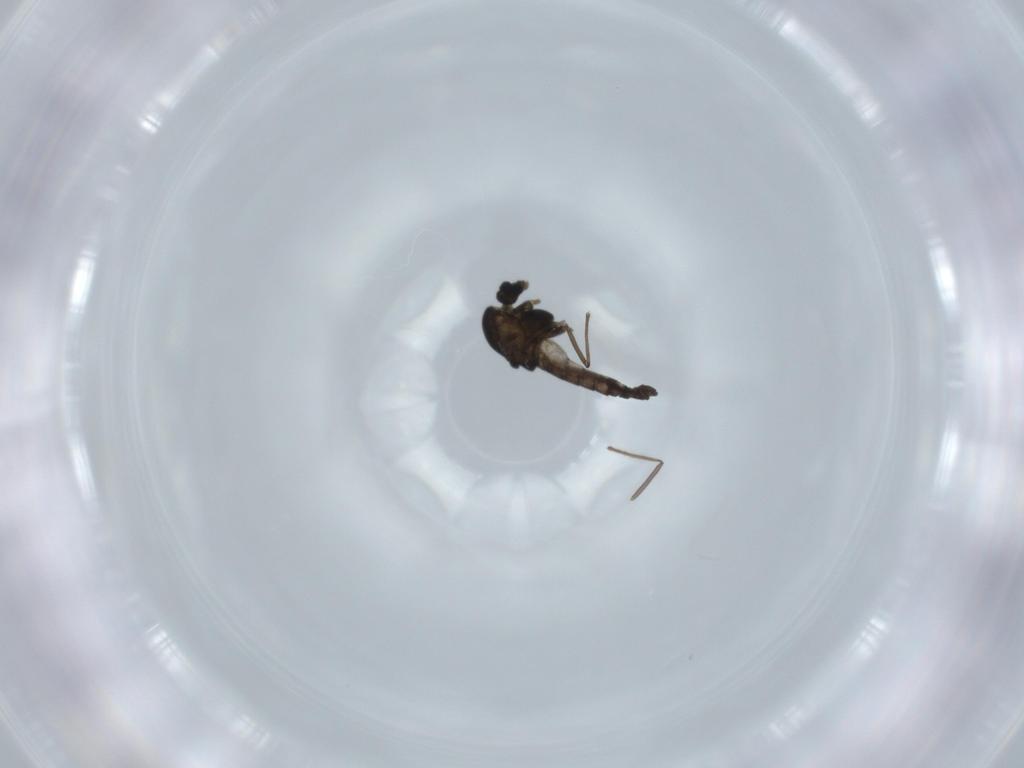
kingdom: Animalia
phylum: Arthropoda
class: Insecta
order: Diptera
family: Chironomidae
